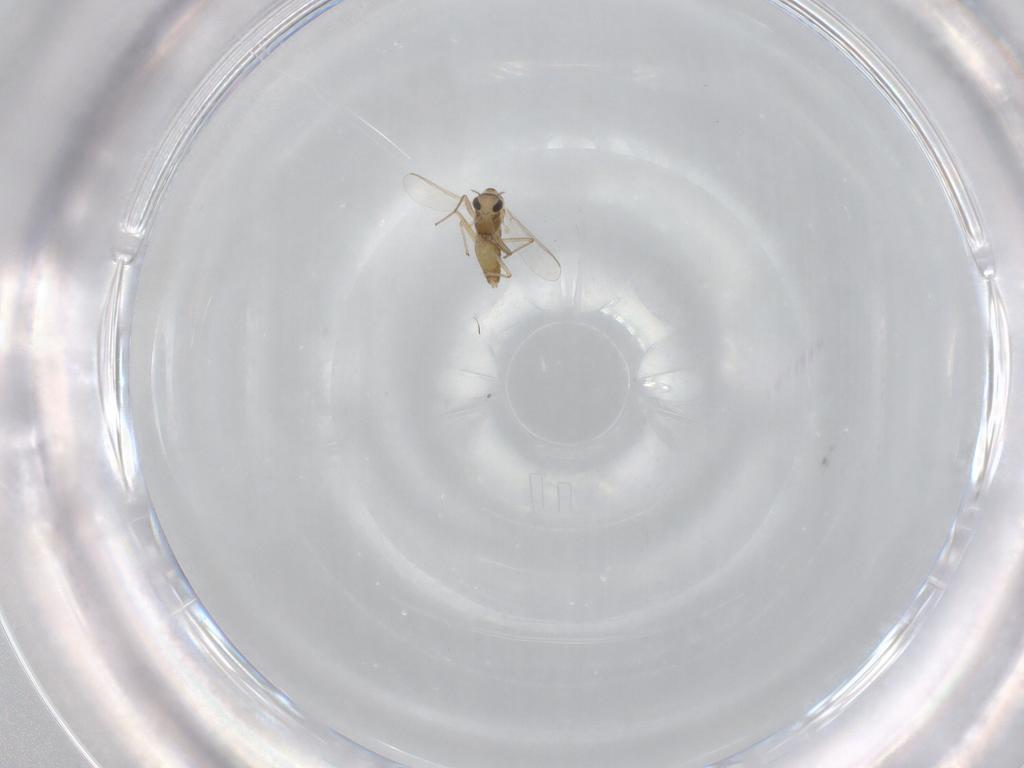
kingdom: Animalia
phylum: Arthropoda
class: Insecta
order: Diptera
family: Chironomidae
